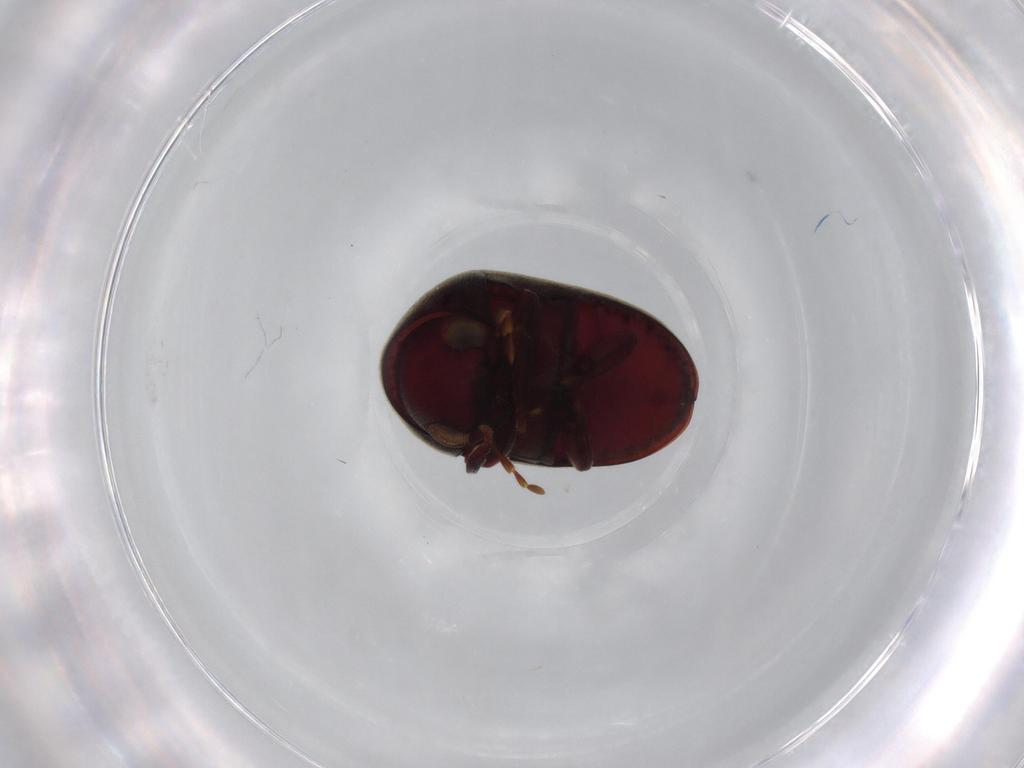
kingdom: Animalia
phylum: Arthropoda
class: Insecta
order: Coleoptera
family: Ptinidae
